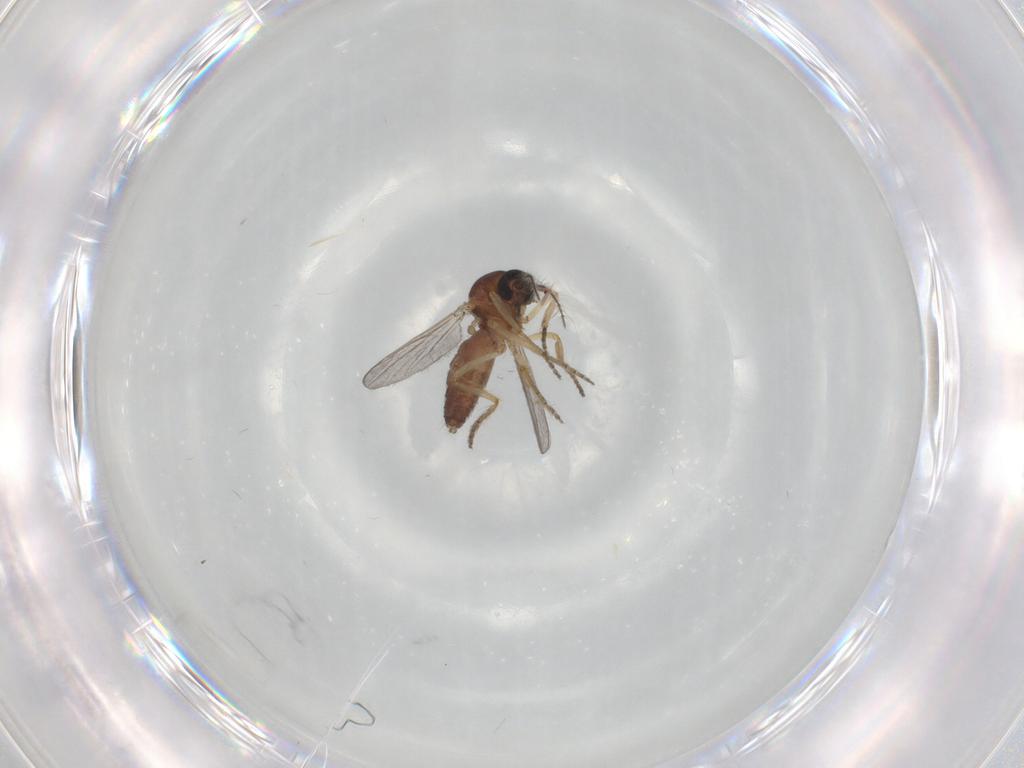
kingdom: Animalia
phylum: Arthropoda
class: Insecta
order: Diptera
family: Ceratopogonidae
